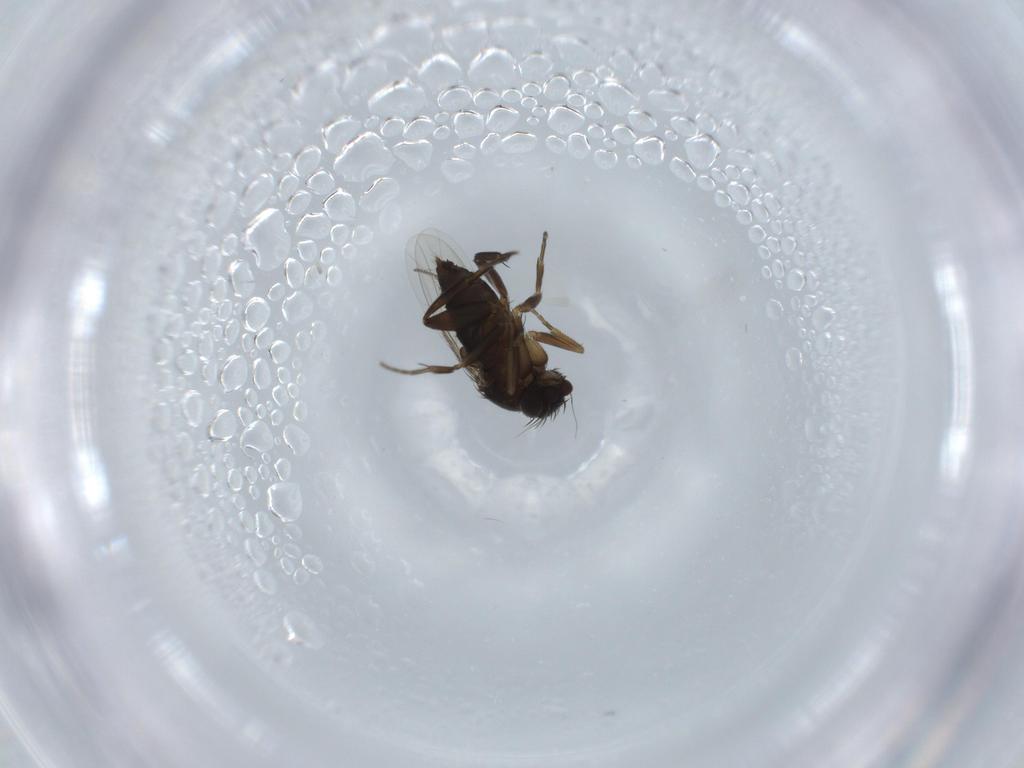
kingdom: Animalia
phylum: Arthropoda
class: Insecta
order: Diptera
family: Phoridae
